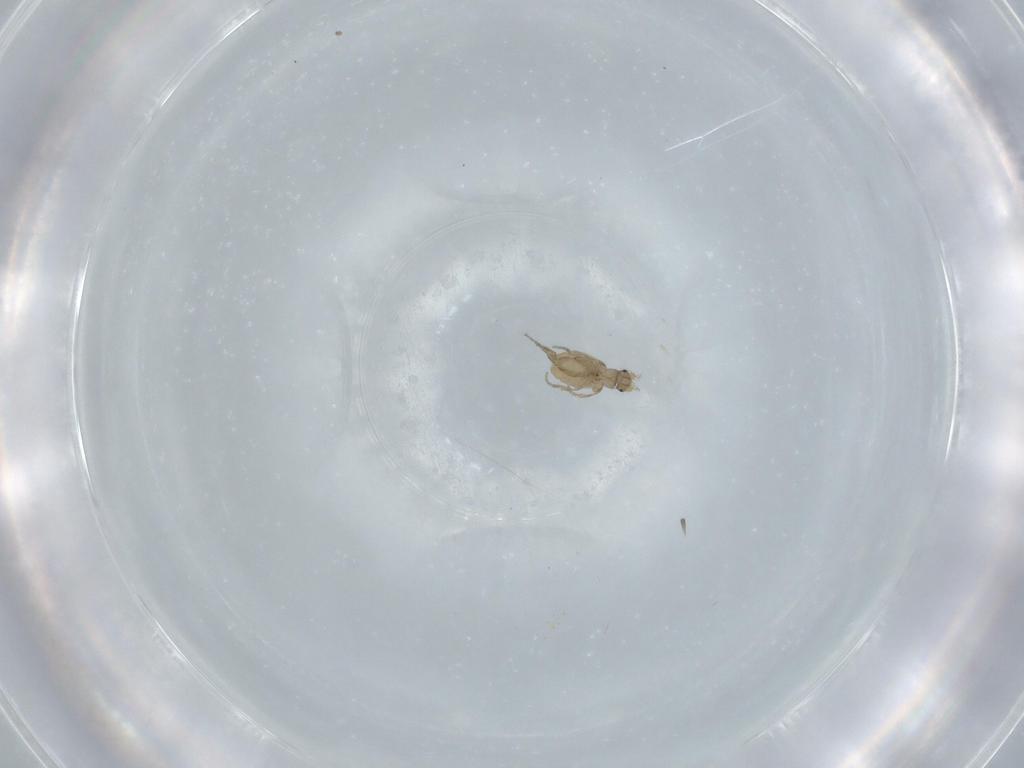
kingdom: Animalia
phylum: Arthropoda
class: Insecta
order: Diptera
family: Phoridae
